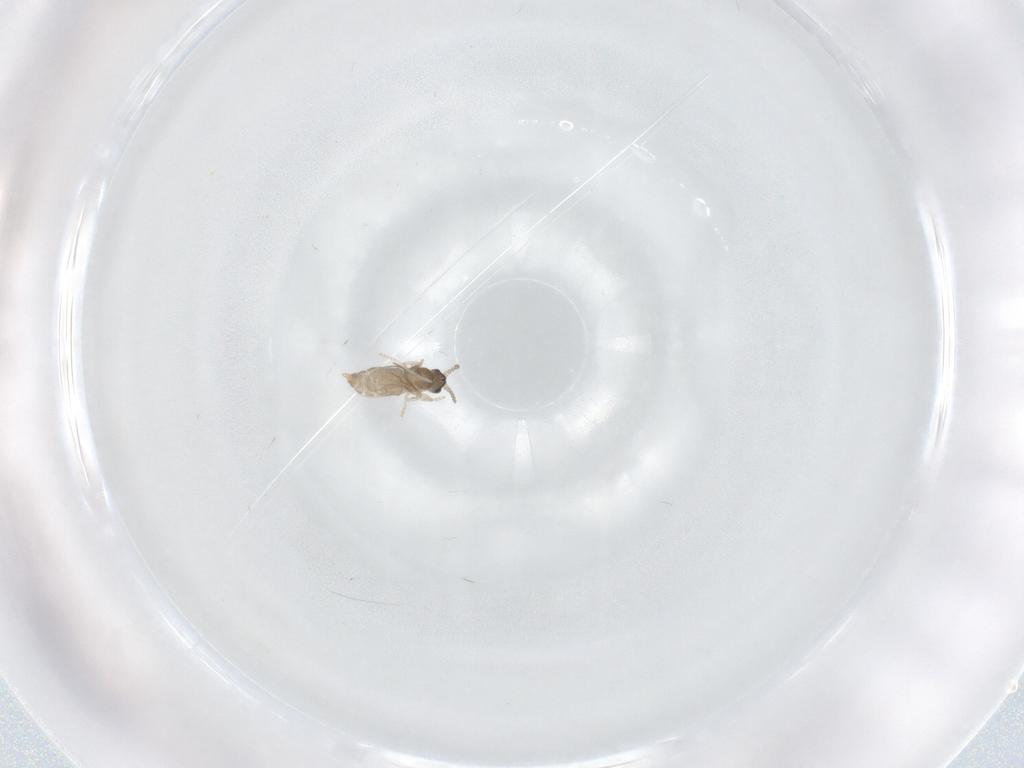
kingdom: Animalia
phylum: Arthropoda
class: Insecta
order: Diptera
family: Cecidomyiidae
